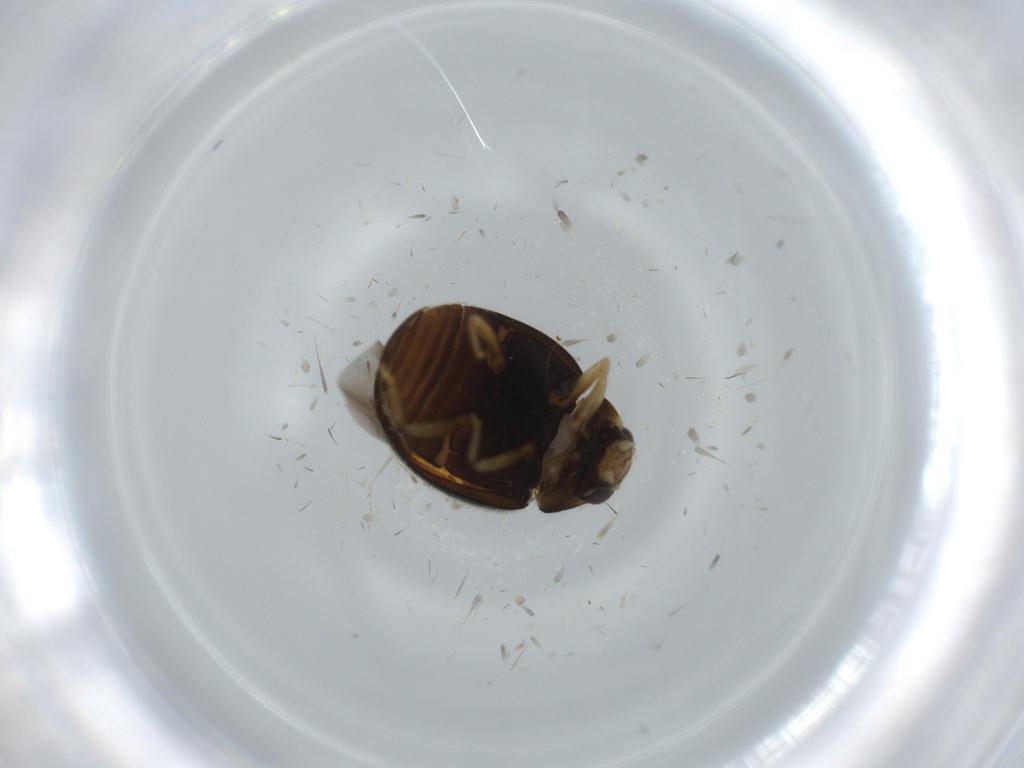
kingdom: Animalia
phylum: Arthropoda
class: Insecta
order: Coleoptera
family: Coccinellidae
